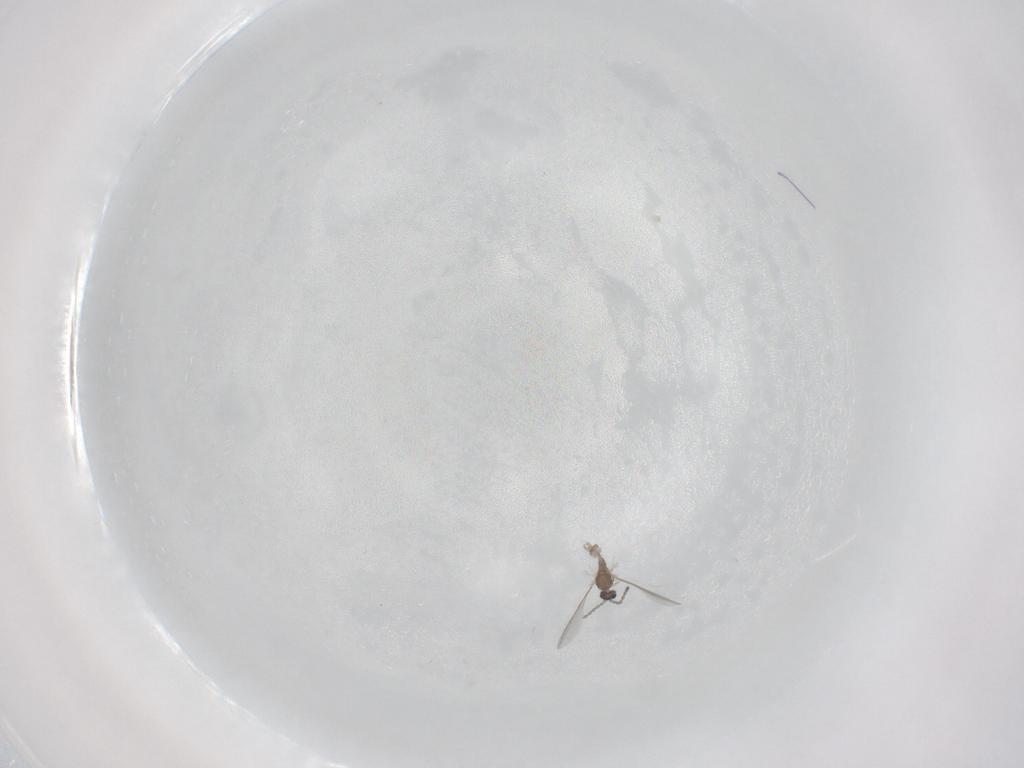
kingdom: Animalia
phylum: Arthropoda
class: Insecta
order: Diptera
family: Cecidomyiidae
